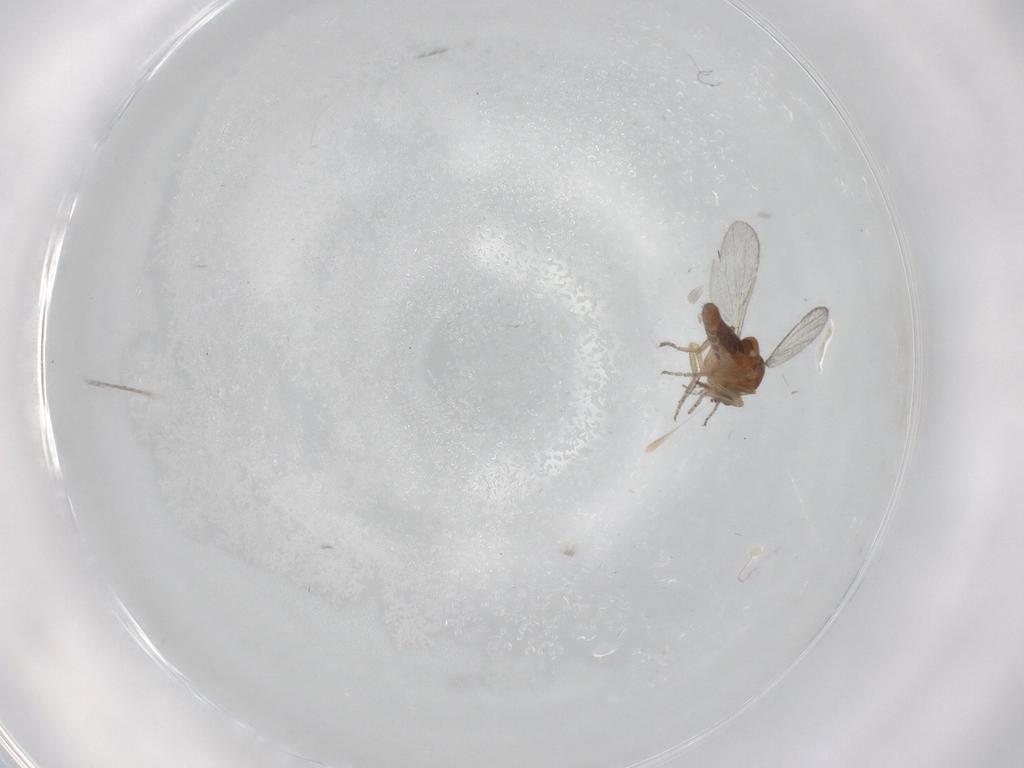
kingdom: Animalia
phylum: Arthropoda
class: Insecta
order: Diptera
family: Ceratopogonidae
